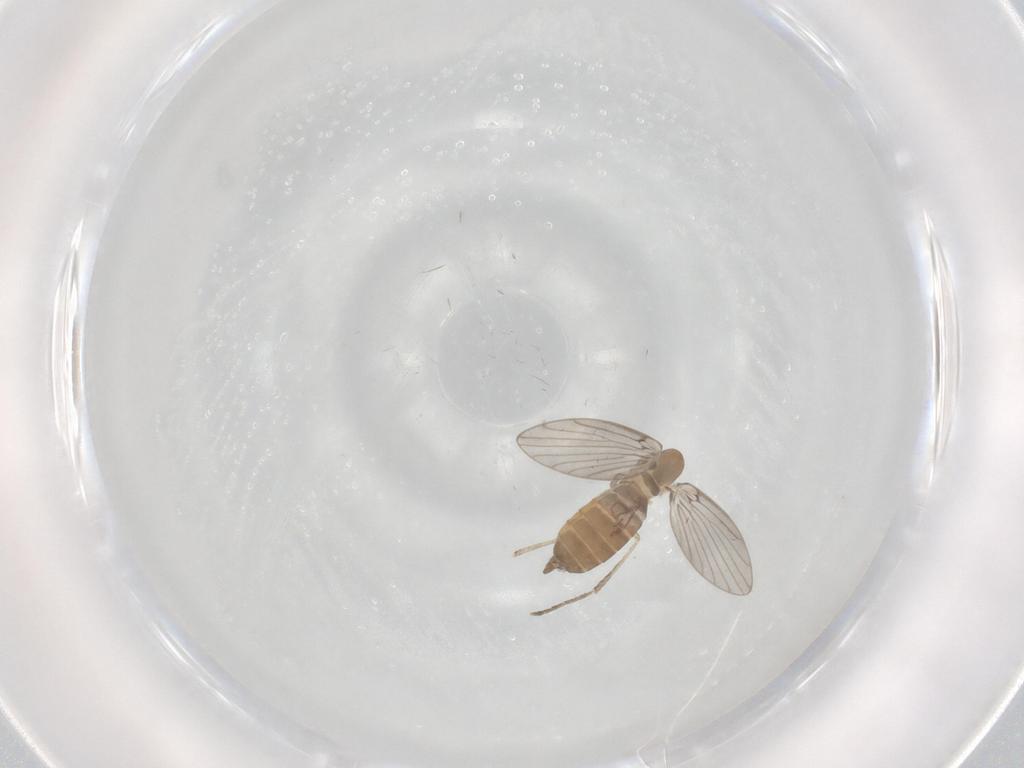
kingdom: Animalia
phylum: Arthropoda
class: Insecta
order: Diptera
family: Psychodidae
